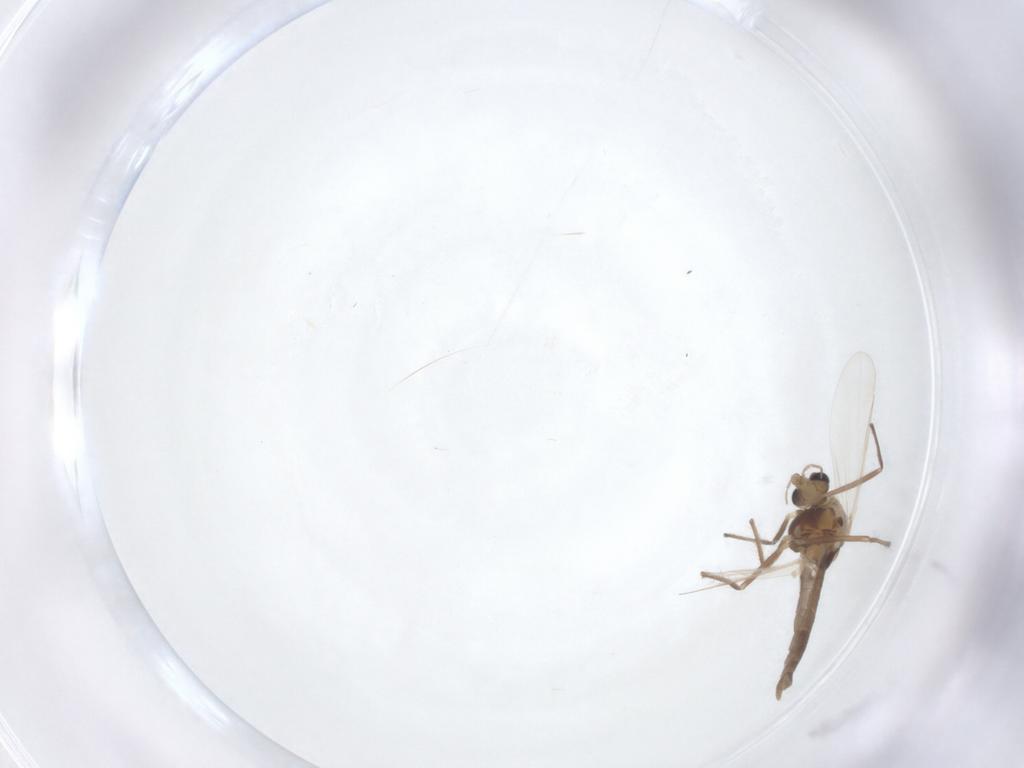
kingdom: Animalia
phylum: Arthropoda
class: Insecta
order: Diptera
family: Chironomidae
